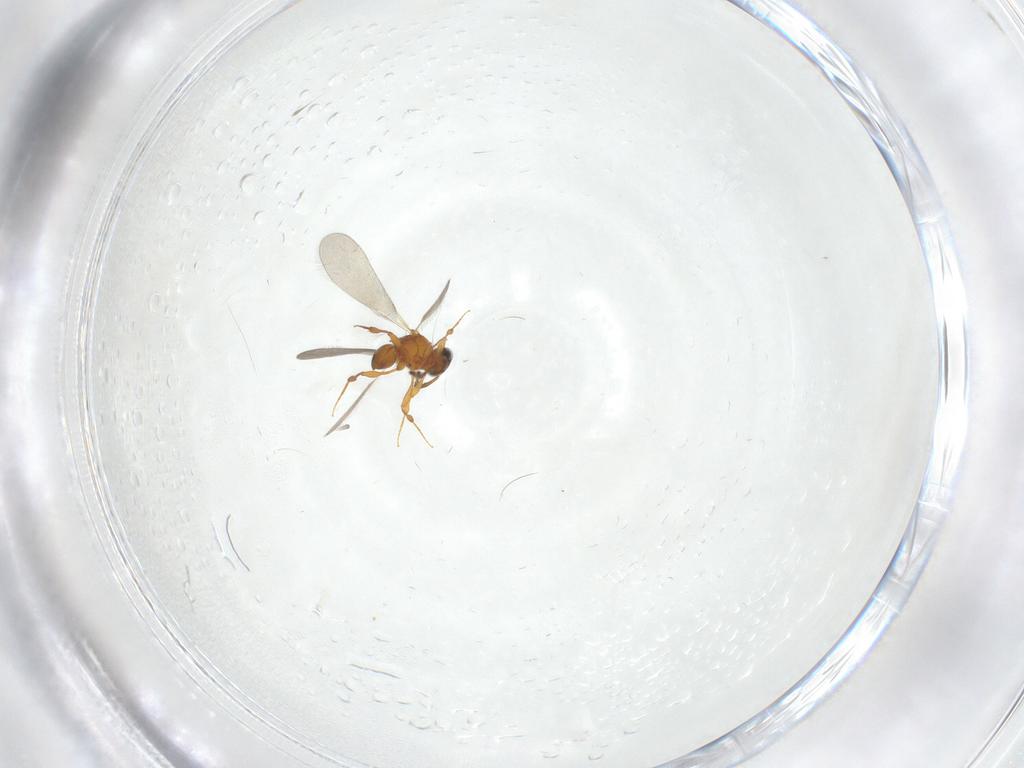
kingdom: Animalia
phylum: Arthropoda
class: Insecta
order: Hymenoptera
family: Platygastridae
